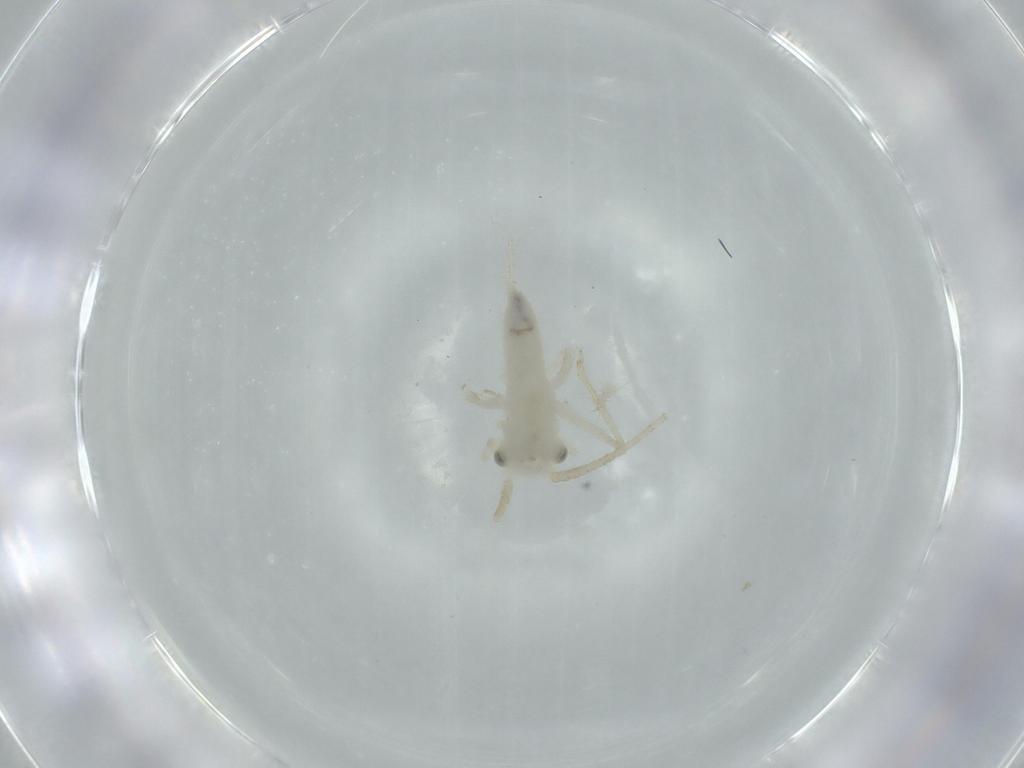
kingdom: Animalia
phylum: Arthropoda
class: Insecta
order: Orthoptera
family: Trigonidiidae
